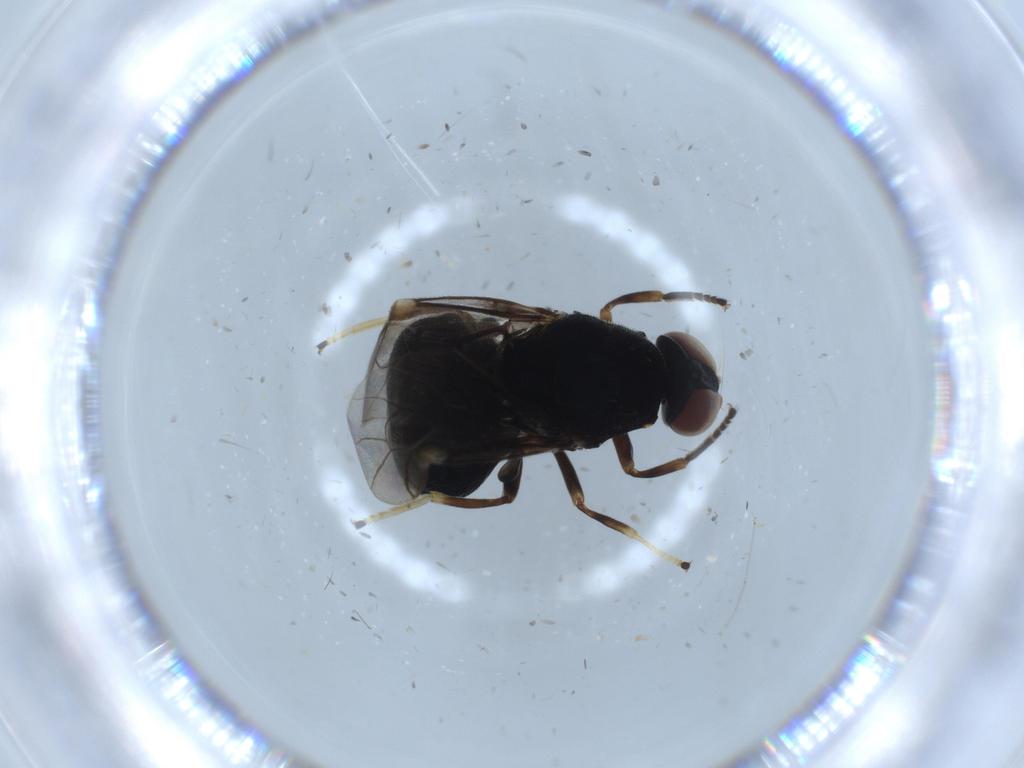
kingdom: Animalia
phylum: Arthropoda
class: Insecta
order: Diptera
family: Stratiomyidae
